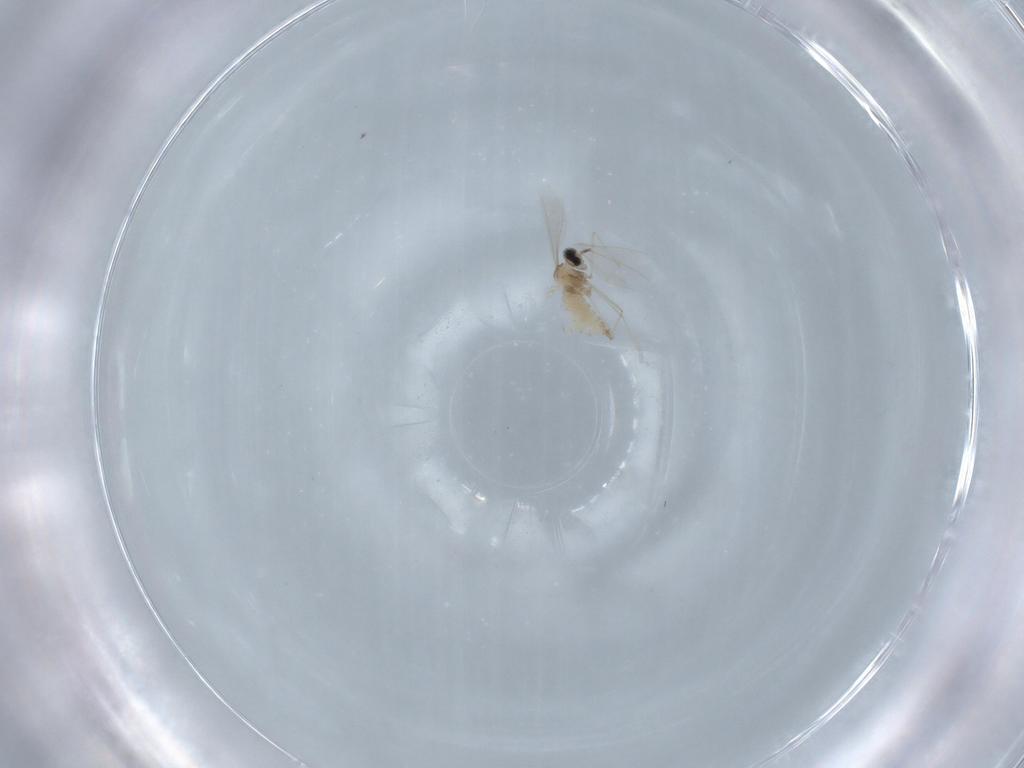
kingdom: Animalia
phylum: Arthropoda
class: Insecta
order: Diptera
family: Cecidomyiidae
